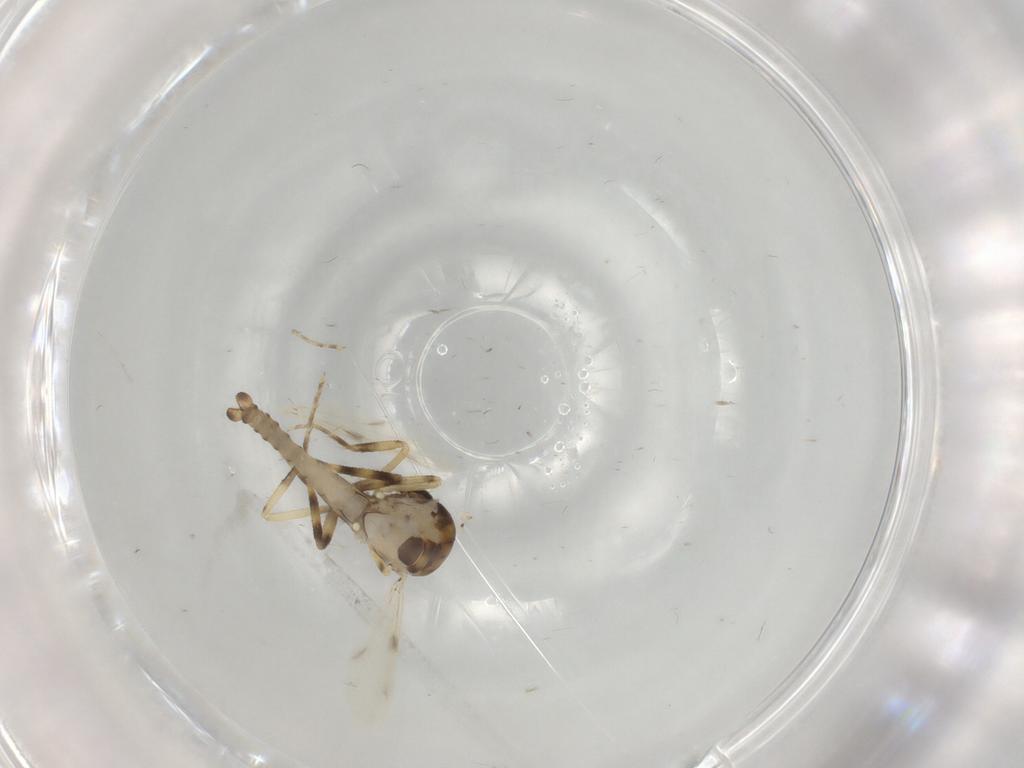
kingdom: Animalia
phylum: Arthropoda
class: Insecta
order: Diptera
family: Ceratopogonidae
